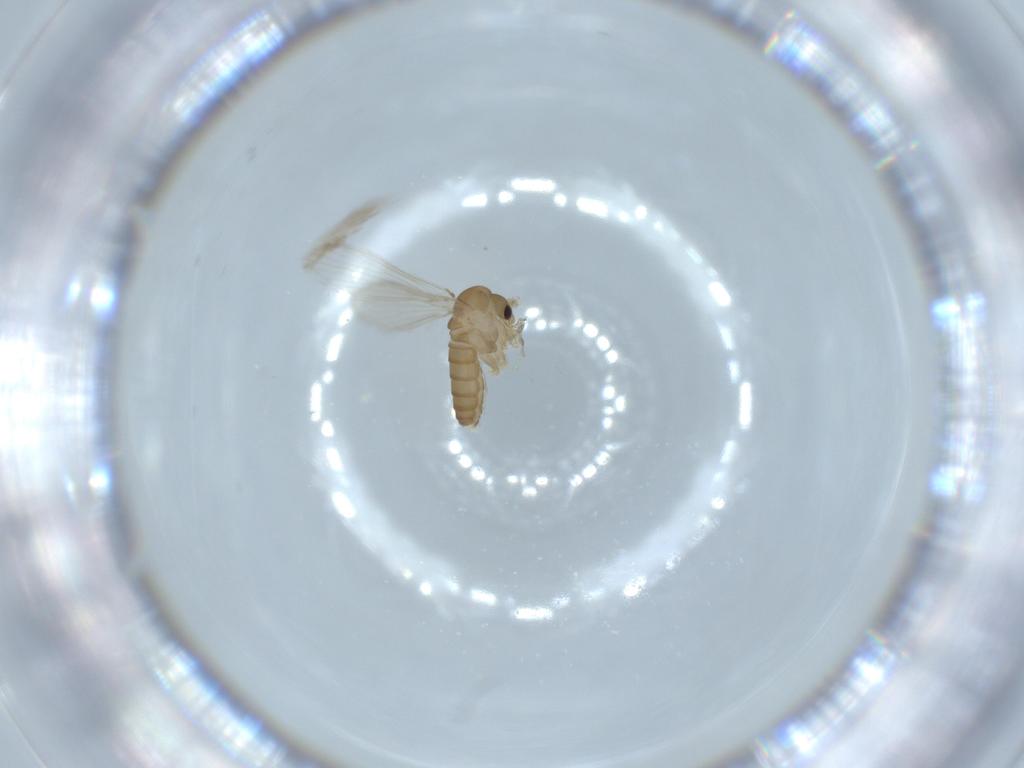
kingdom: Animalia
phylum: Arthropoda
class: Insecta
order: Diptera
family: Psychodidae
